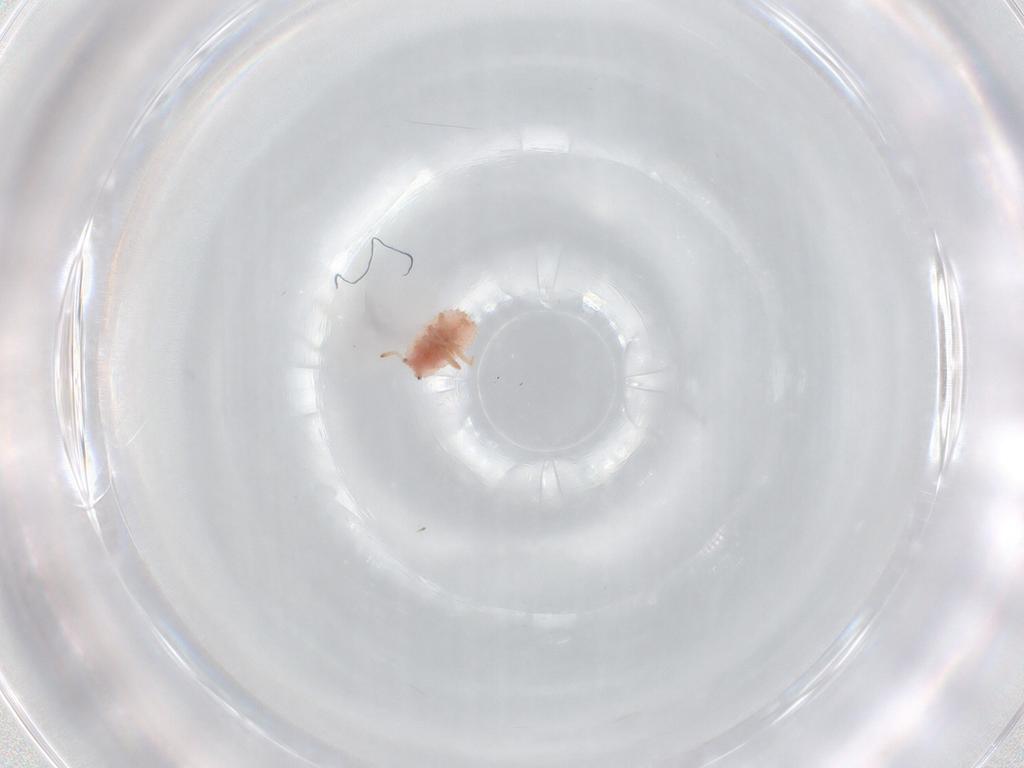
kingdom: Animalia
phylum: Arthropoda
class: Insecta
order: Hemiptera
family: Coccoidea_incertae_sedis
